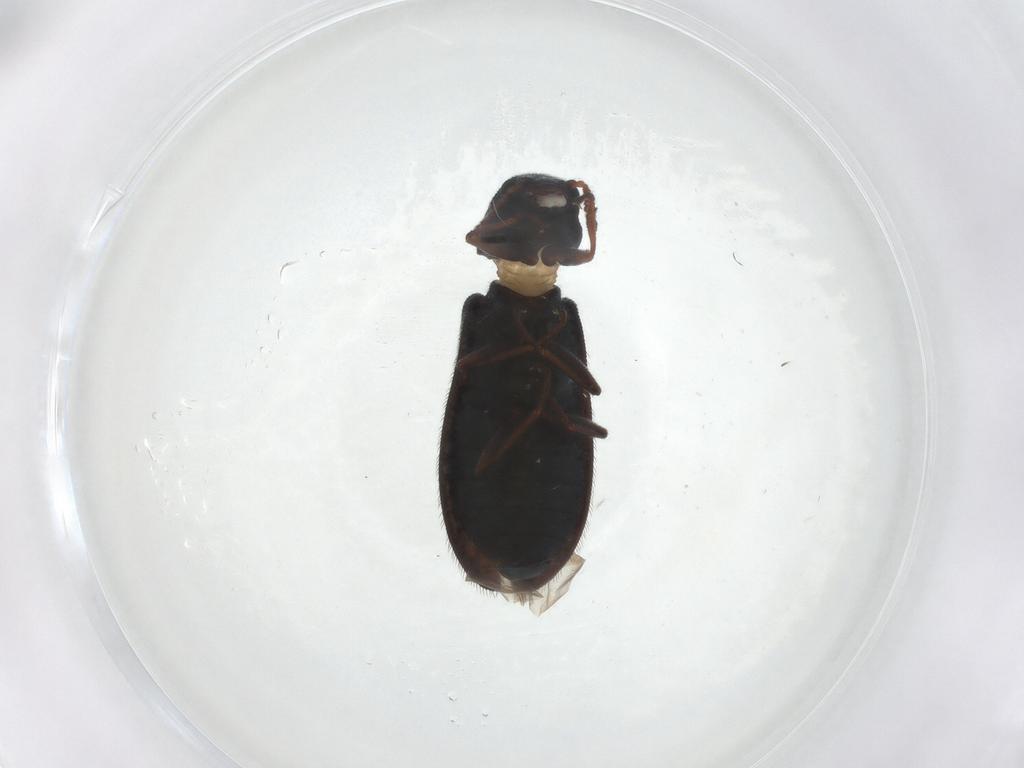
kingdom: Animalia
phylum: Arthropoda
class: Insecta
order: Coleoptera
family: Melyridae
